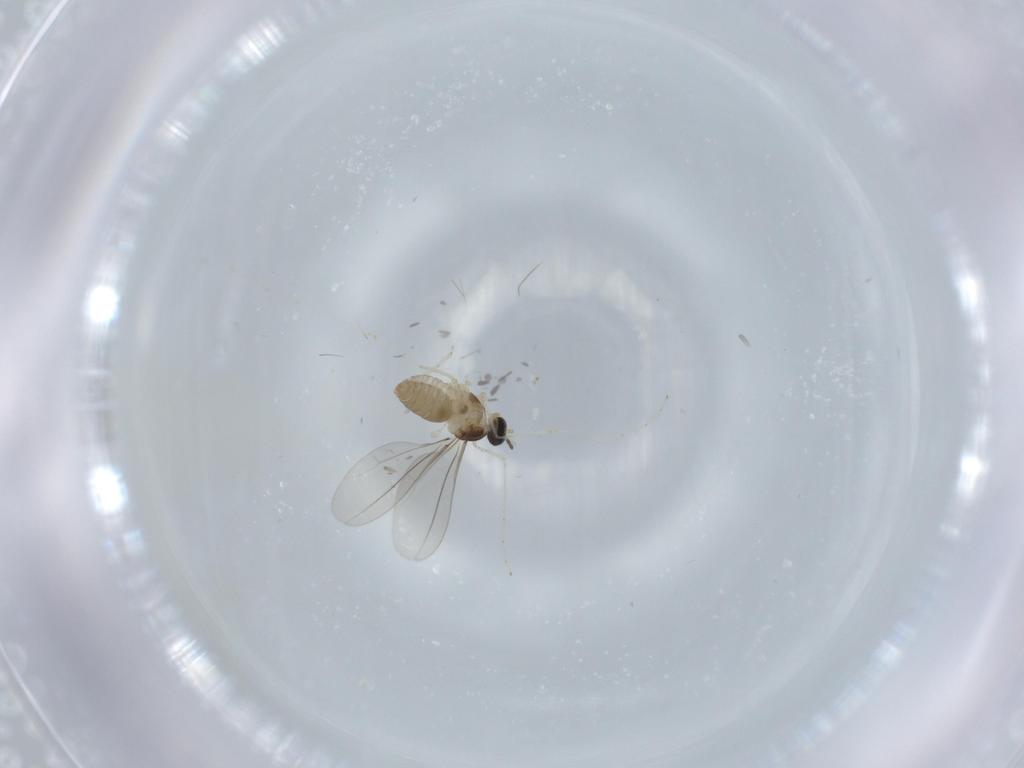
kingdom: Animalia
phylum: Arthropoda
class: Insecta
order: Diptera
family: Cecidomyiidae
